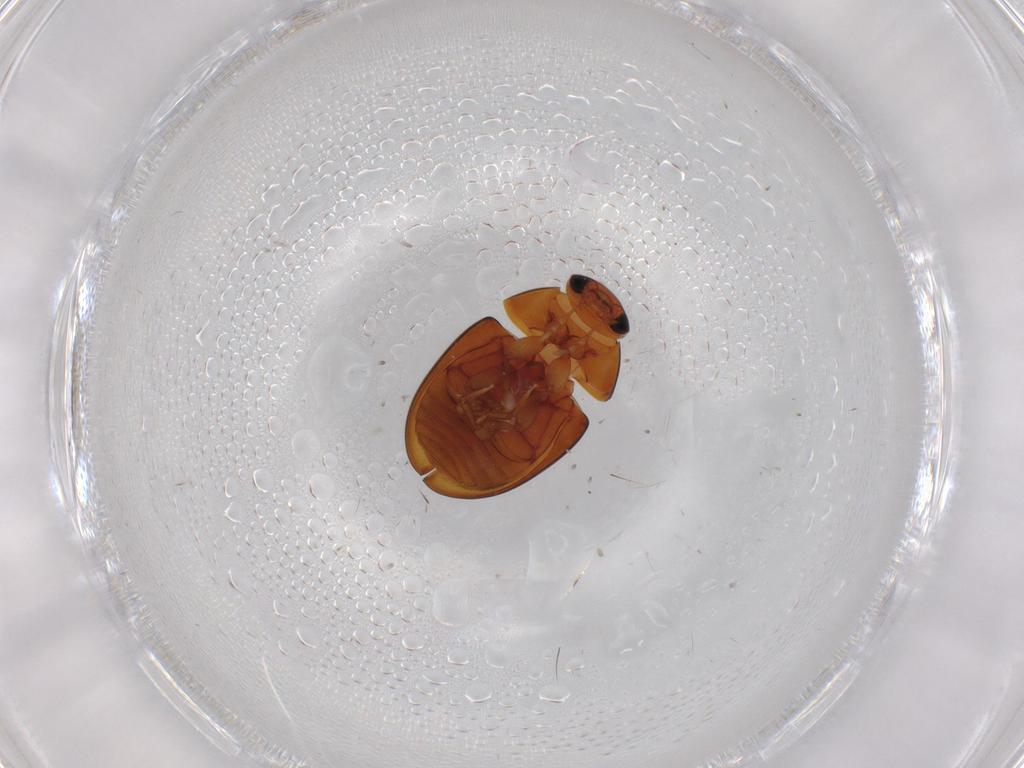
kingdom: Animalia
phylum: Arthropoda
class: Insecta
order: Coleoptera
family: Phalacridae
